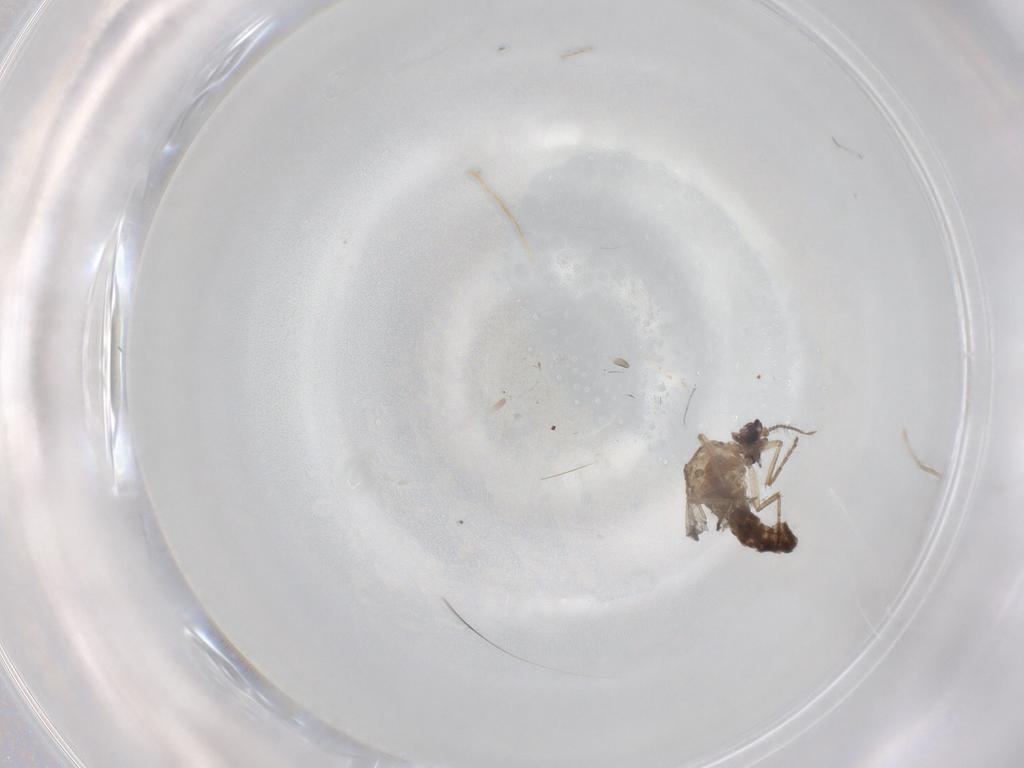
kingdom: Animalia
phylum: Arthropoda
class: Insecta
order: Diptera
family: Ceratopogonidae
